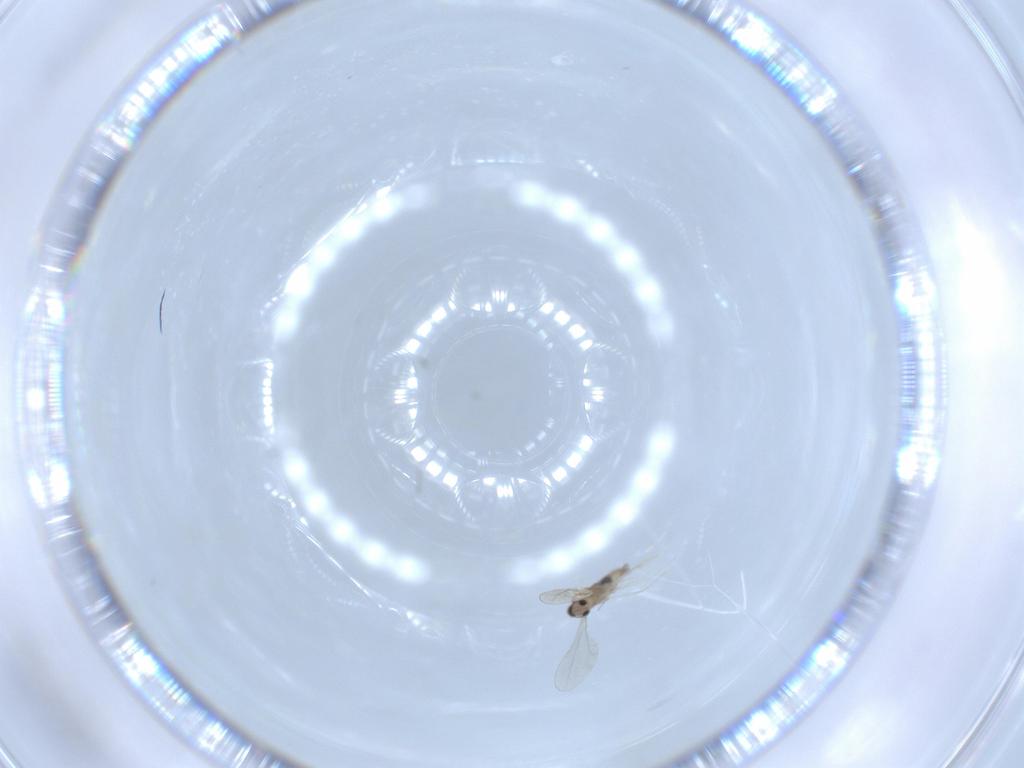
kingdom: Animalia
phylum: Arthropoda
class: Insecta
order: Diptera
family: Cecidomyiidae
